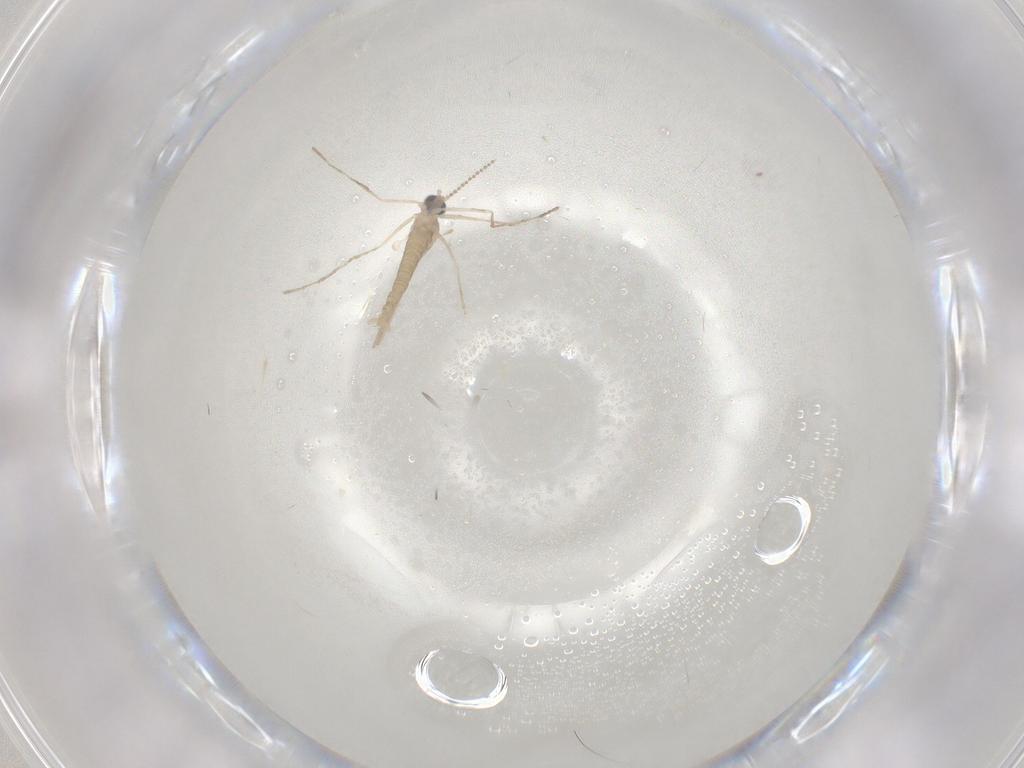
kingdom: Animalia
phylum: Arthropoda
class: Insecta
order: Diptera
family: Cecidomyiidae
